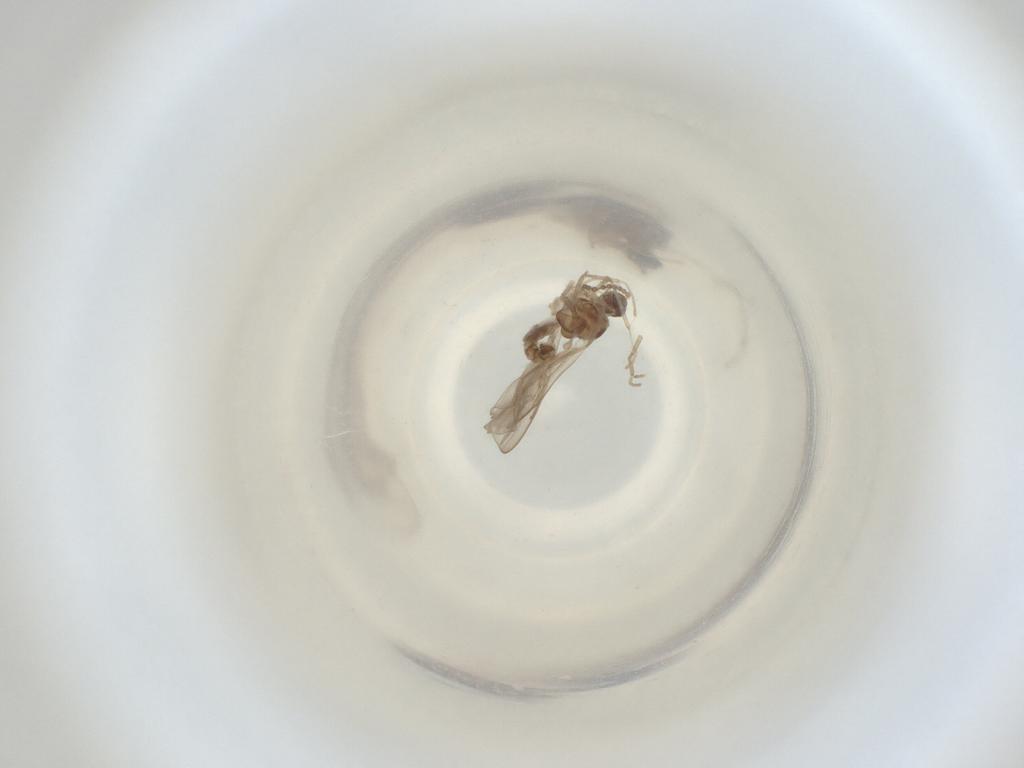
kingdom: Animalia
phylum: Arthropoda
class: Insecta
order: Diptera
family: Cecidomyiidae
